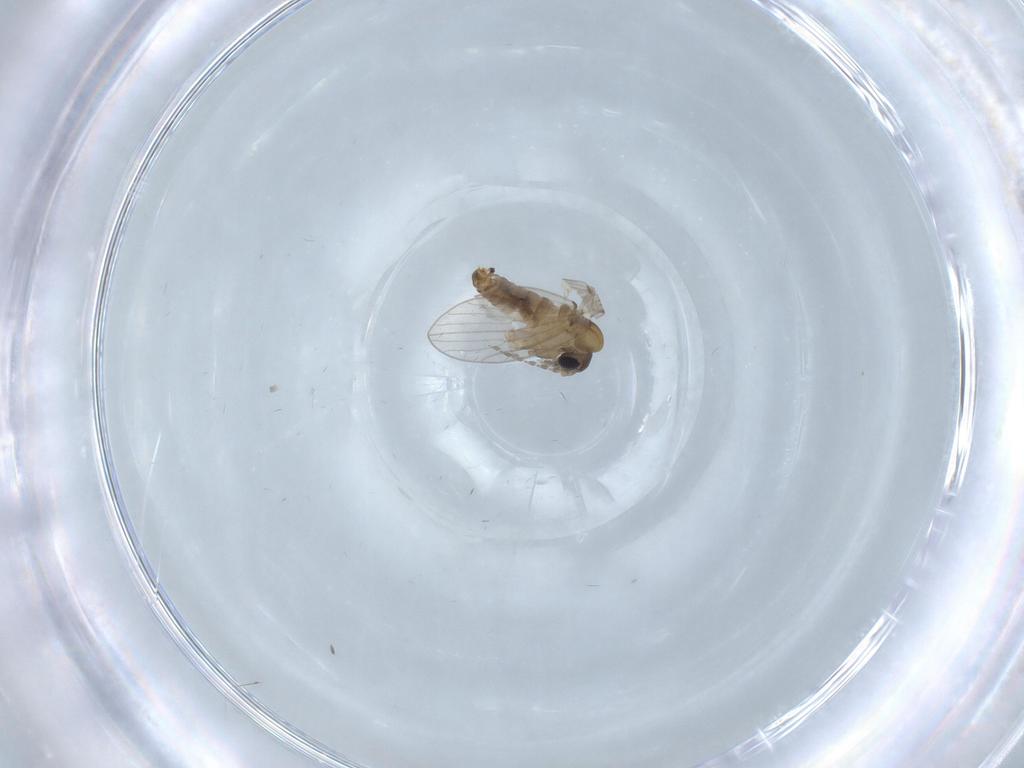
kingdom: Animalia
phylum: Arthropoda
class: Insecta
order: Diptera
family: Psychodidae
